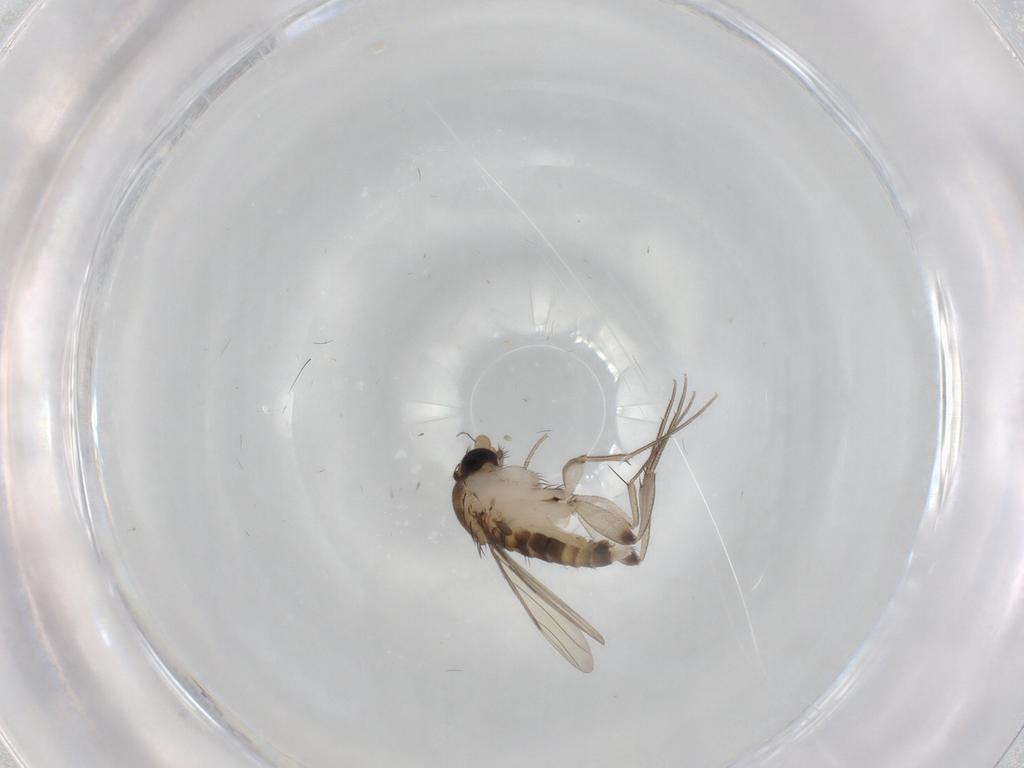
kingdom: Animalia
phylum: Arthropoda
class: Insecta
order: Diptera
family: Phoridae
